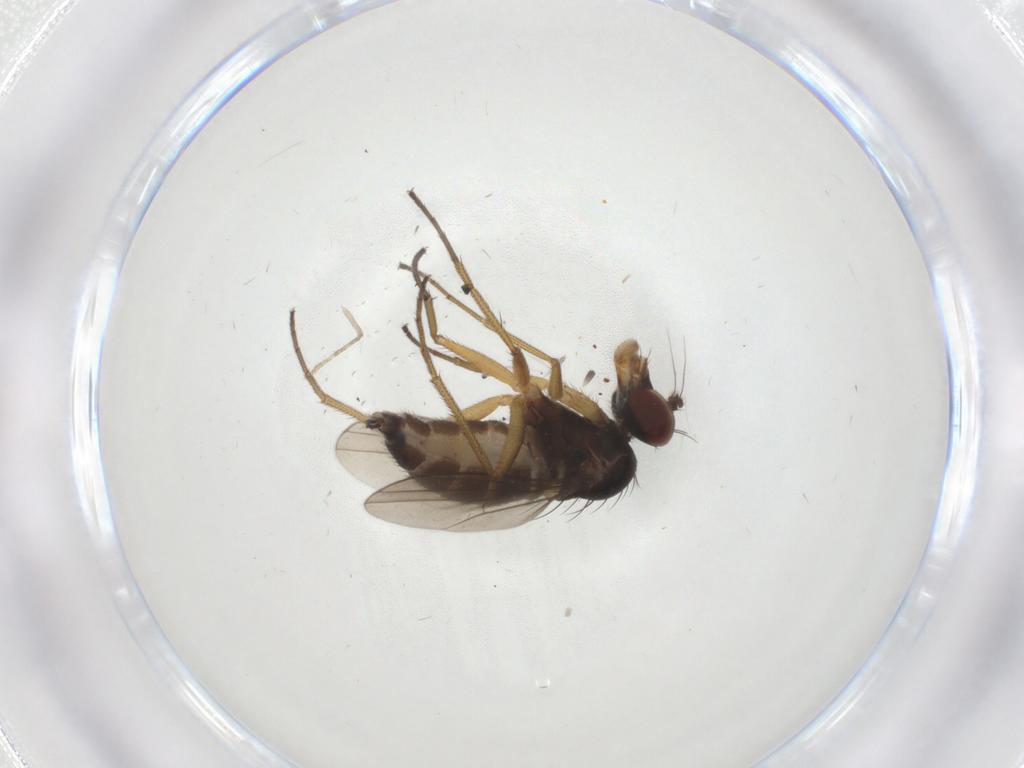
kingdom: Animalia
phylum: Arthropoda
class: Insecta
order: Diptera
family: Dolichopodidae
